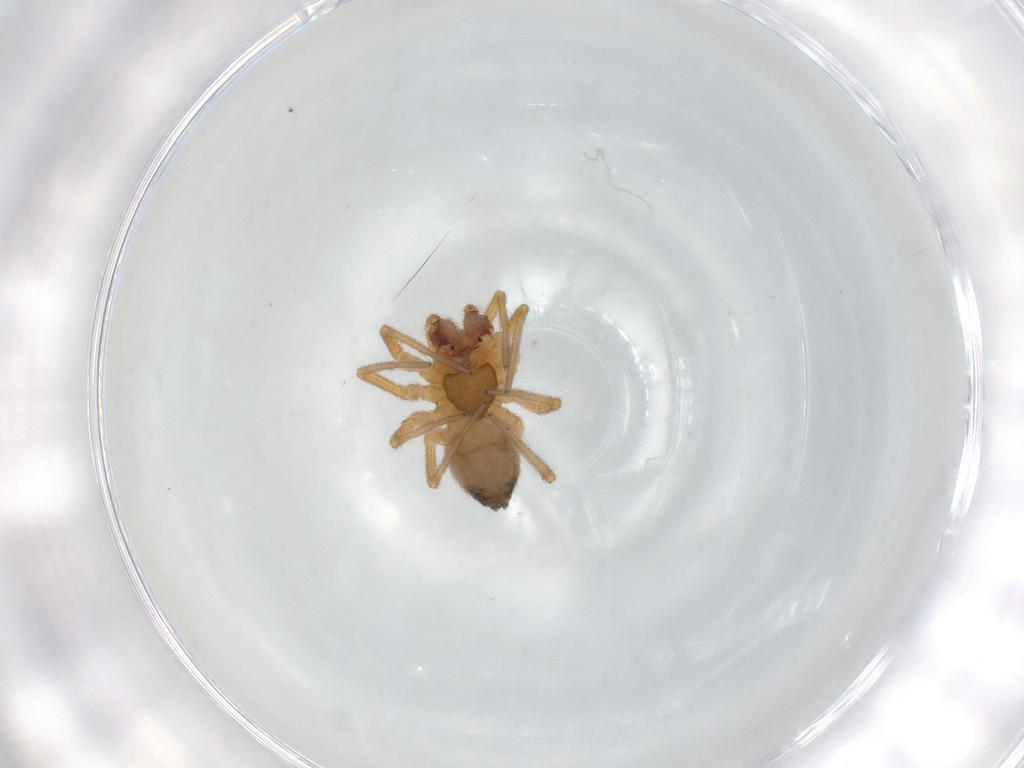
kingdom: Animalia
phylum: Arthropoda
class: Arachnida
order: Araneae
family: Linyphiidae
